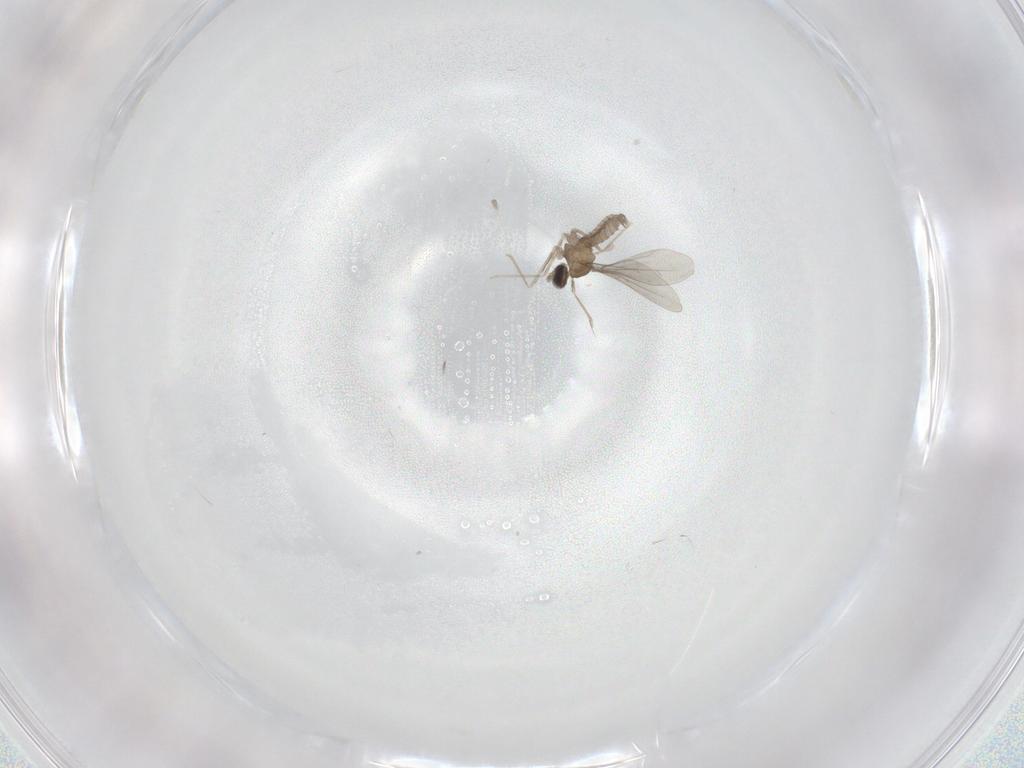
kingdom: Animalia
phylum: Arthropoda
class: Insecta
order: Diptera
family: Cecidomyiidae
